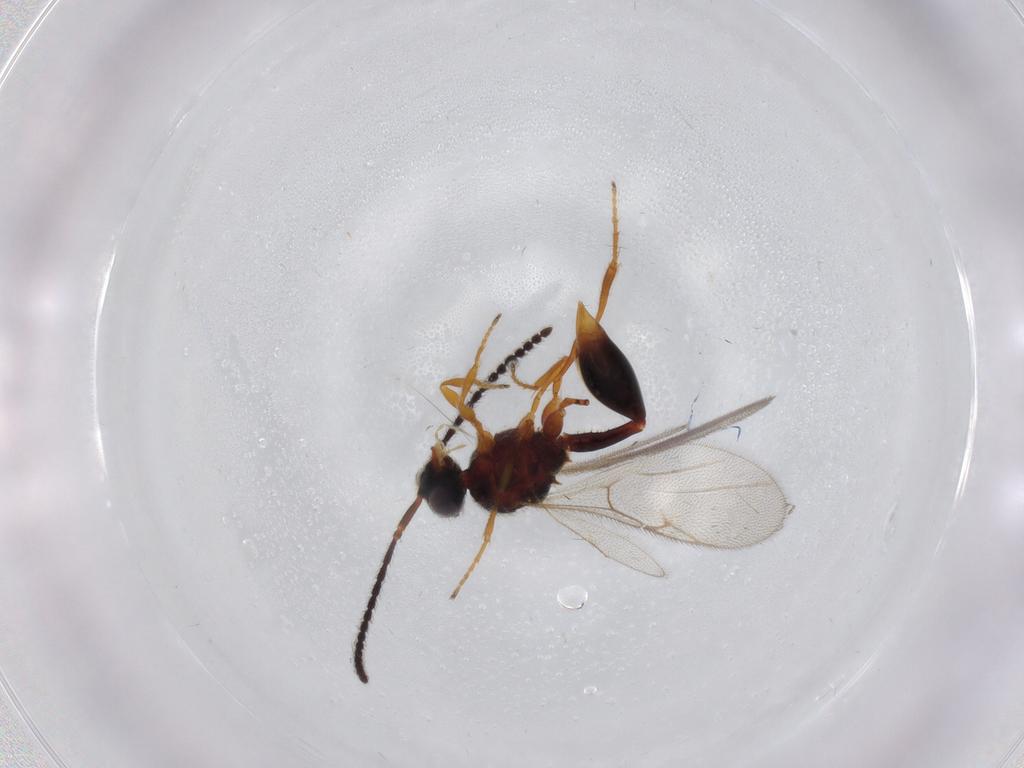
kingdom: Animalia
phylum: Arthropoda
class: Insecta
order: Hymenoptera
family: Diapriidae
